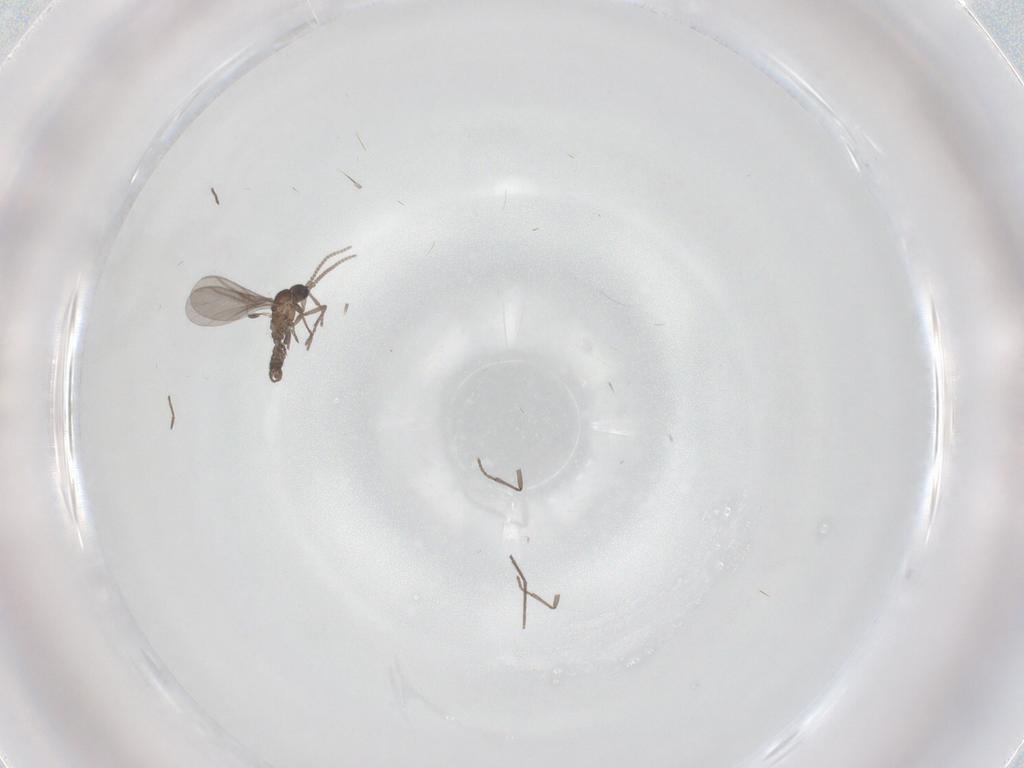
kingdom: Animalia
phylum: Arthropoda
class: Insecta
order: Diptera
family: Chironomidae
